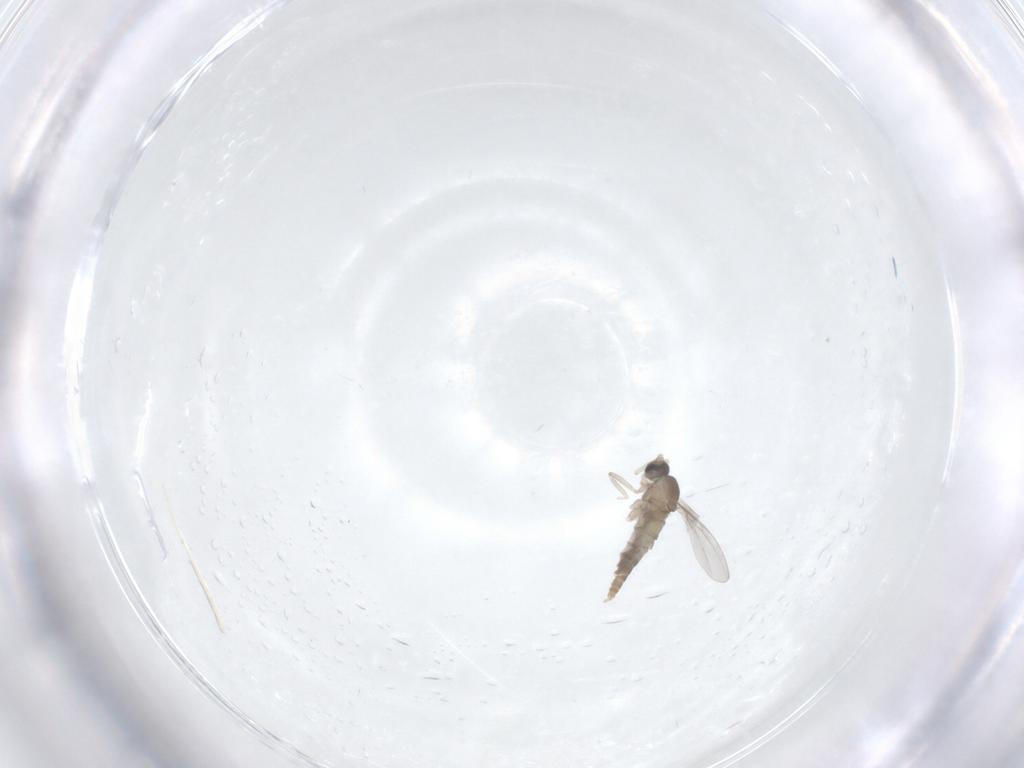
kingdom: Animalia
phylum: Arthropoda
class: Insecta
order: Diptera
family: Cecidomyiidae
